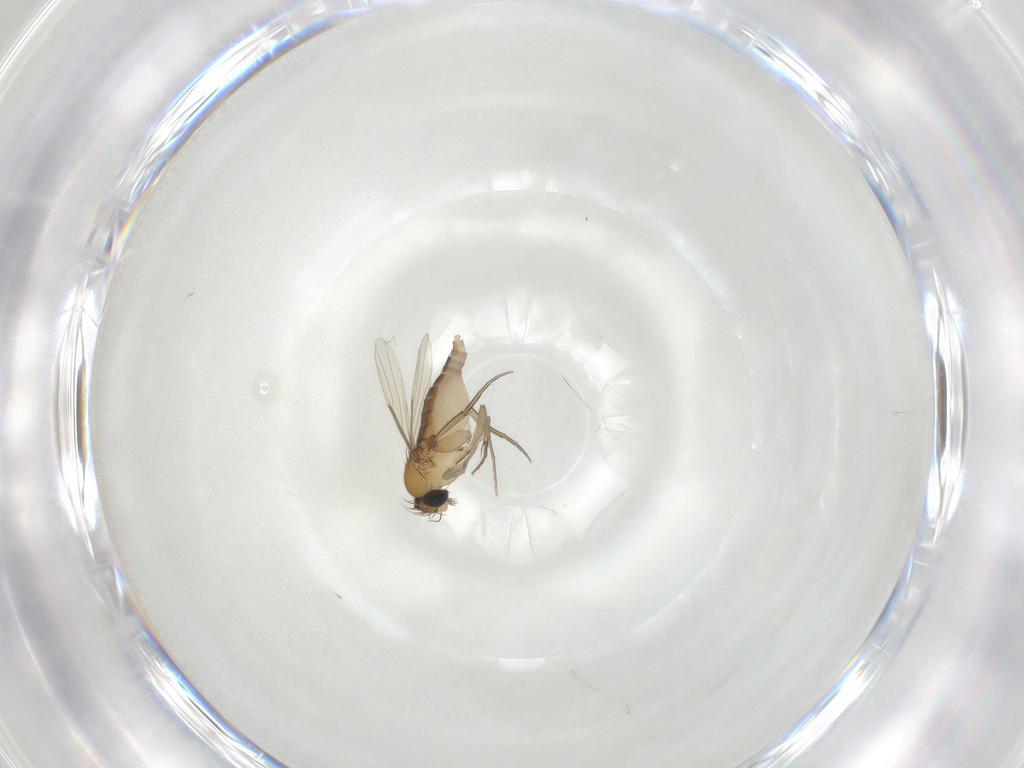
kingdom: Animalia
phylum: Arthropoda
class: Insecta
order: Diptera
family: Phoridae
